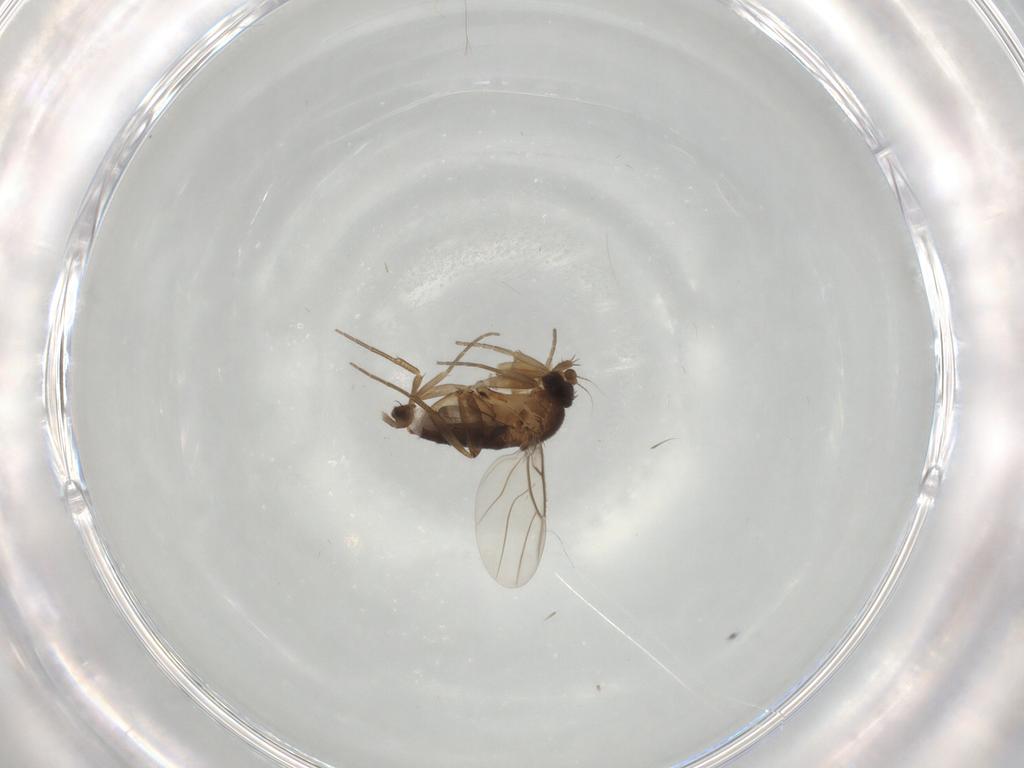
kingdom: Animalia
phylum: Arthropoda
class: Insecta
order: Diptera
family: Phoridae
